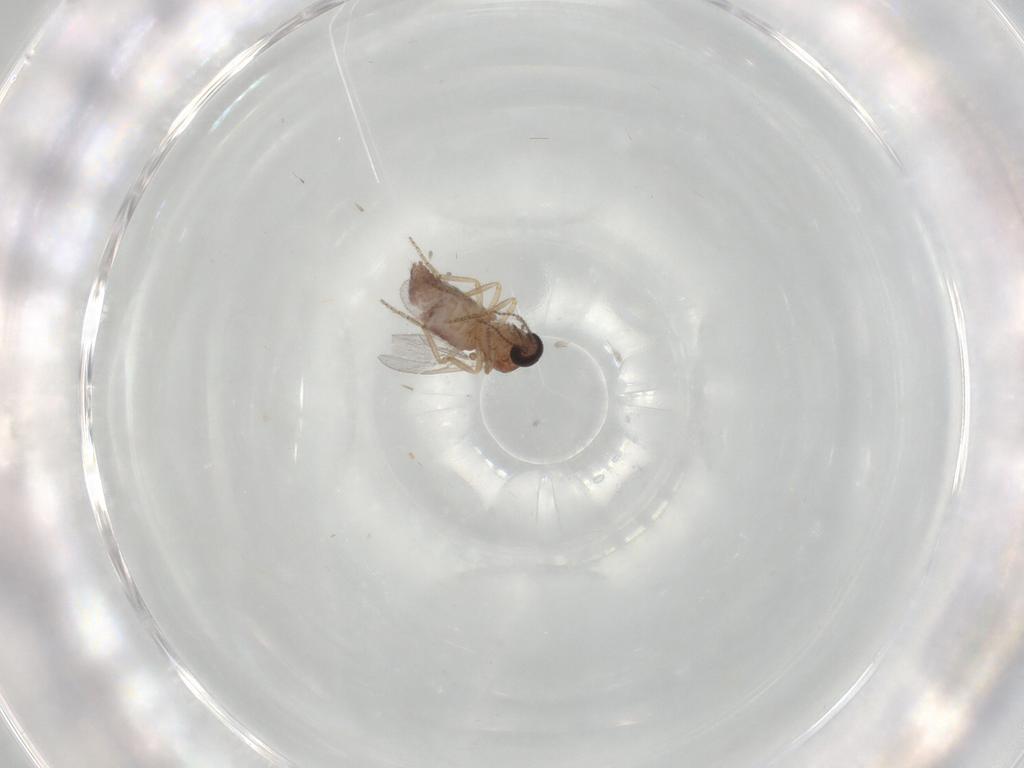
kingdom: Animalia
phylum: Arthropoda
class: Insecta
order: Diptera
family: Ceratopogonidae
